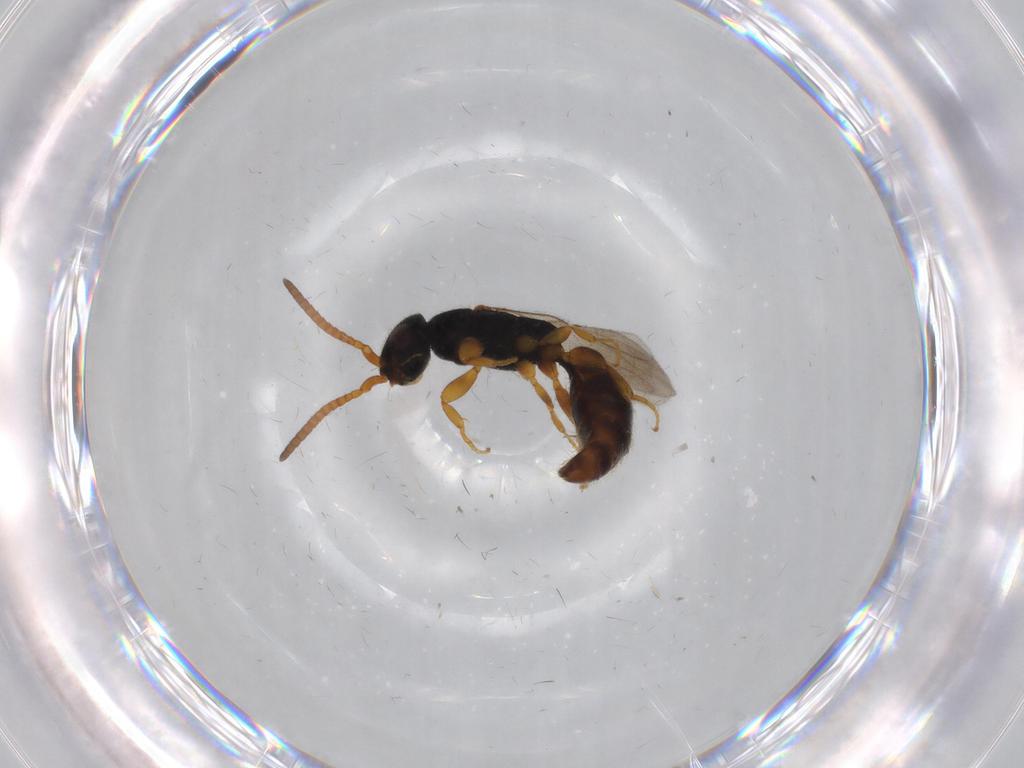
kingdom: Animalia
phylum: Arthropoda
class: Insecta
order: Hymenoptera
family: Bethylidae
